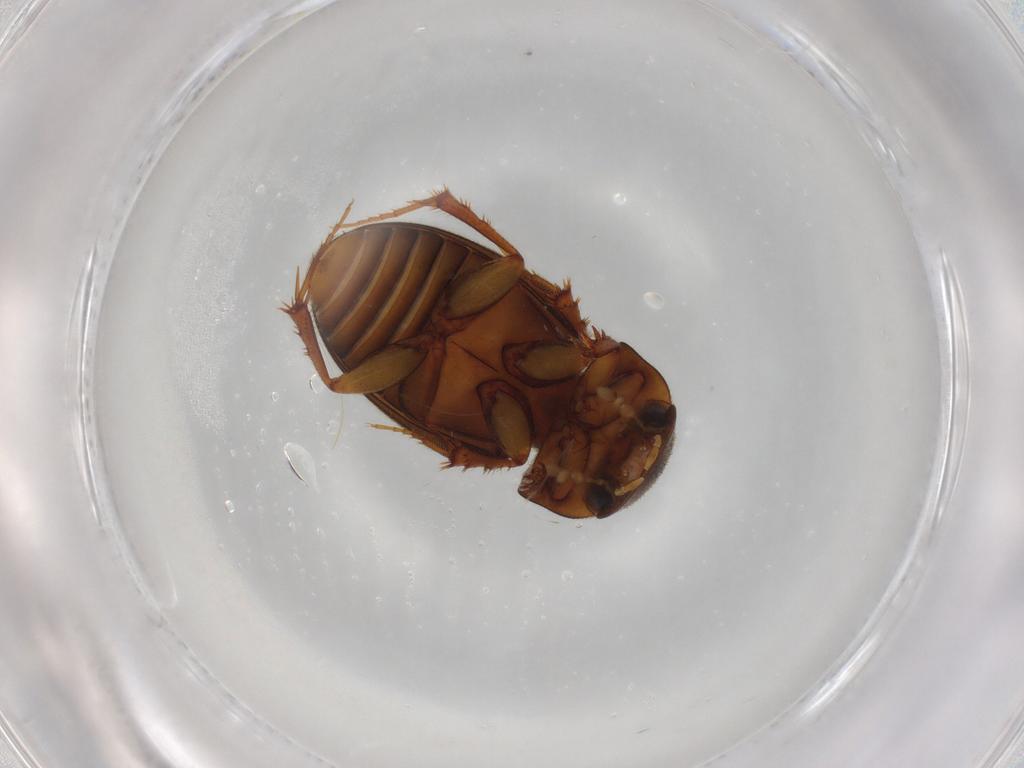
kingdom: Animalia
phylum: Arthropoda
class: Insecta
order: Coleoptera
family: Scarabaeidae
